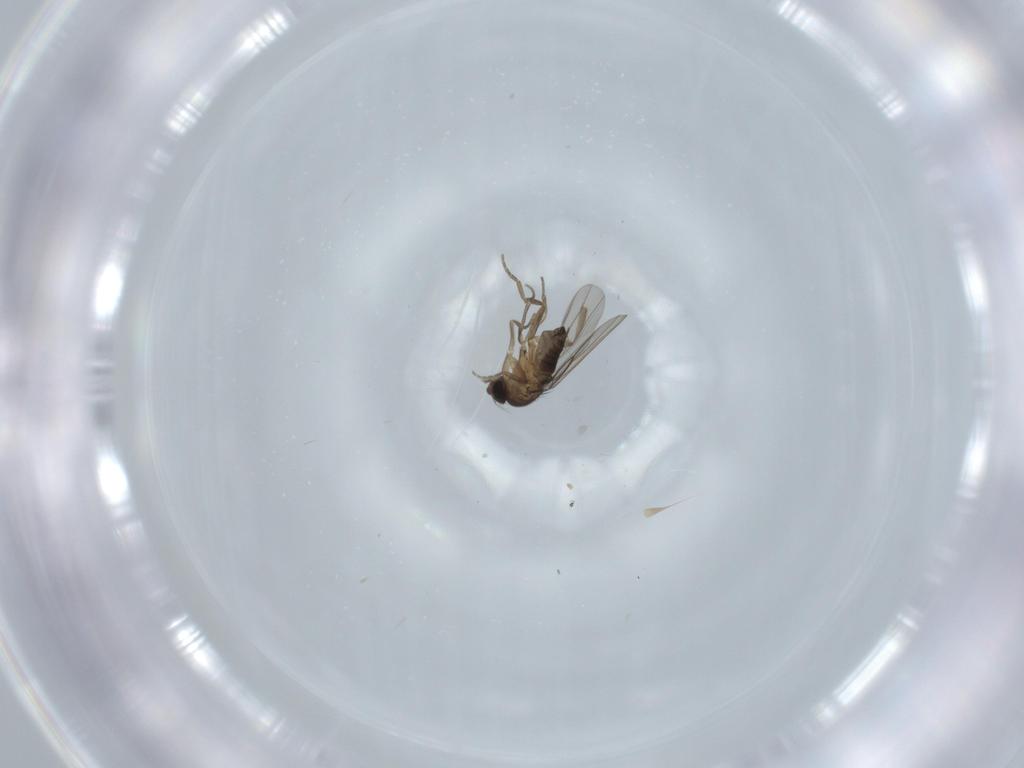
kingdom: Animalia
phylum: Arthropoda
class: Insecta
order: Diptera
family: Phoridae
